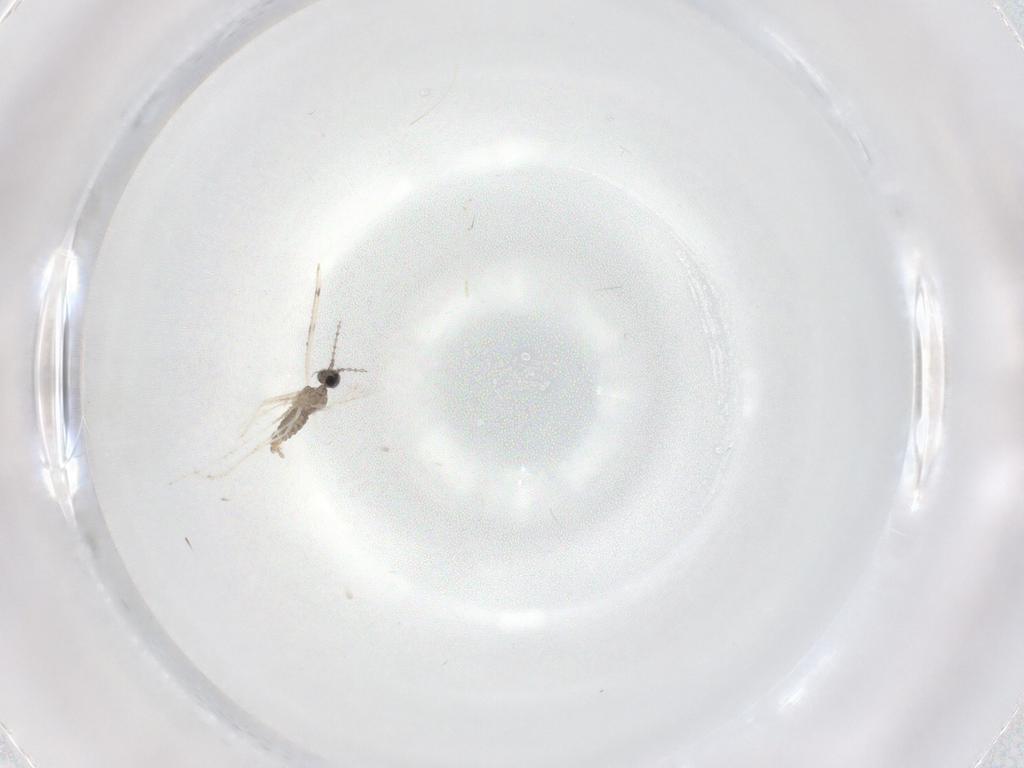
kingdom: Animalia
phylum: Arthropoda
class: Insecta
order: Diptera
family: Cecidomyiidae
